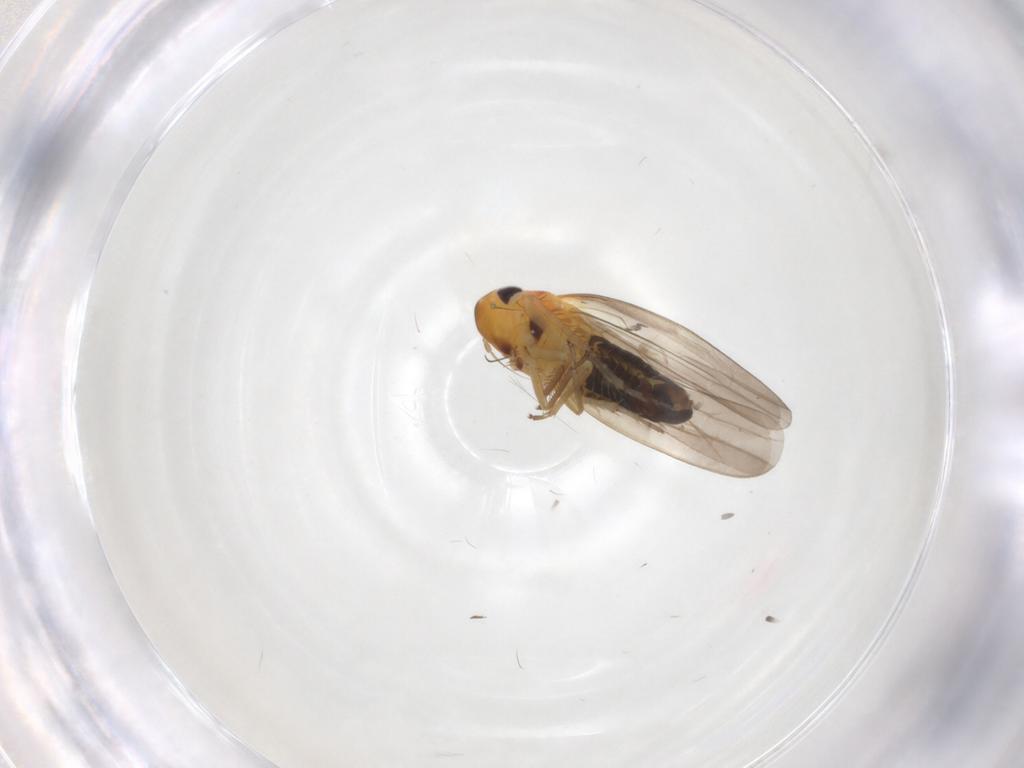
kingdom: Animalia
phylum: Arthropoda
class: Insecta
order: Hemiptera
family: Cicadellidae
